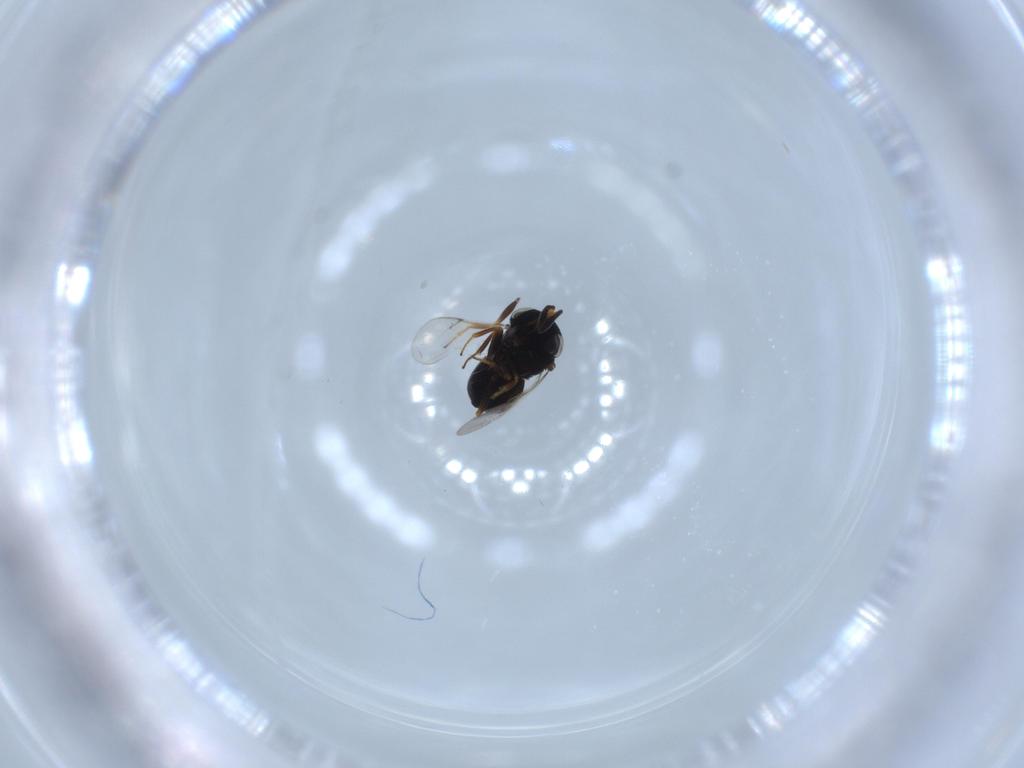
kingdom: Animalia
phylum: Arthropoda
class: Insecta
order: Hymenoptera
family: Scelionidae
